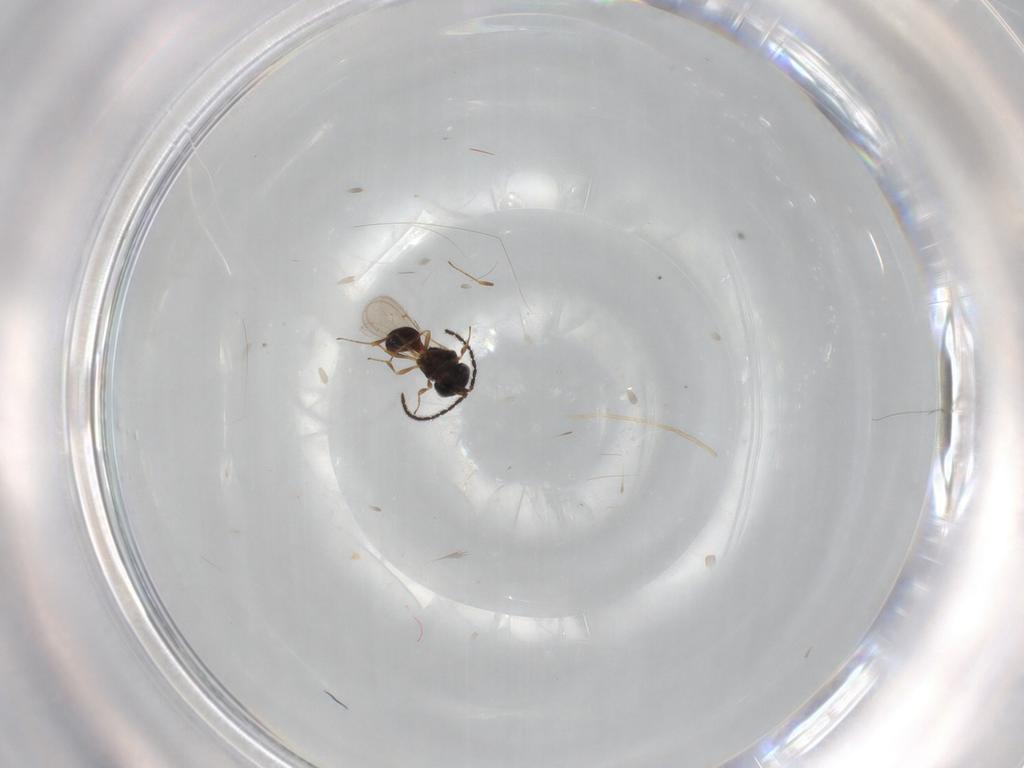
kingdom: Animalia
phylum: Arthropoda
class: Insecta
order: Hymenoptera
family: Scelionidae
